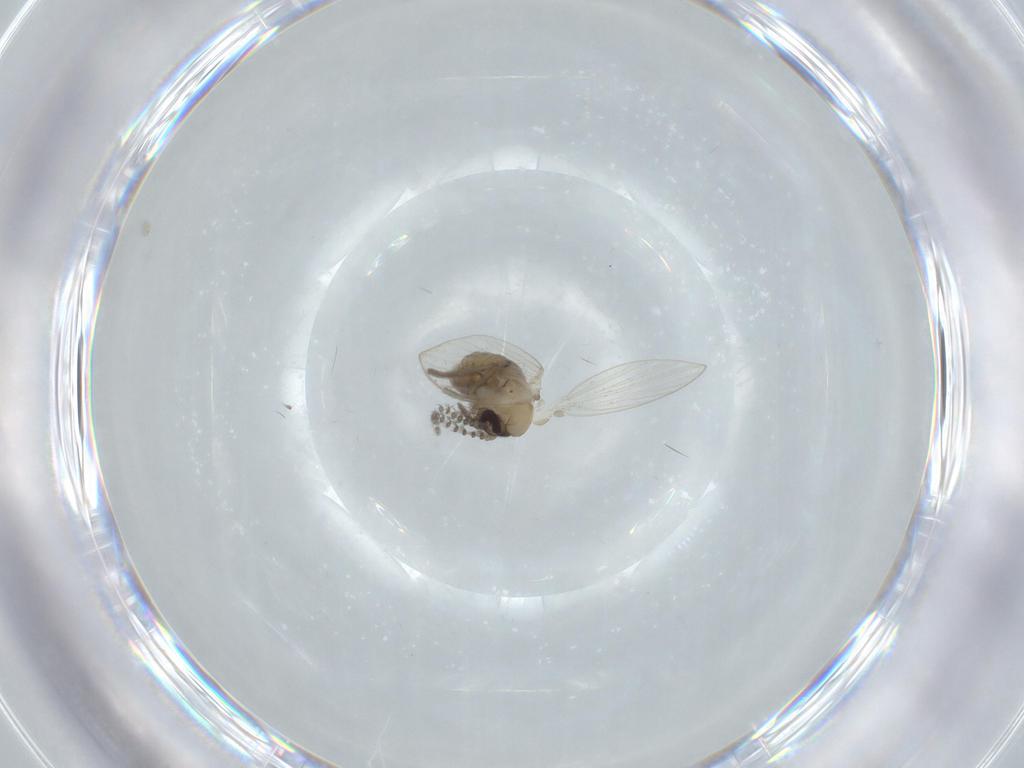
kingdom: Animalia
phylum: Arthropoda
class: Insecta
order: Diptera
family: Psychodidae
